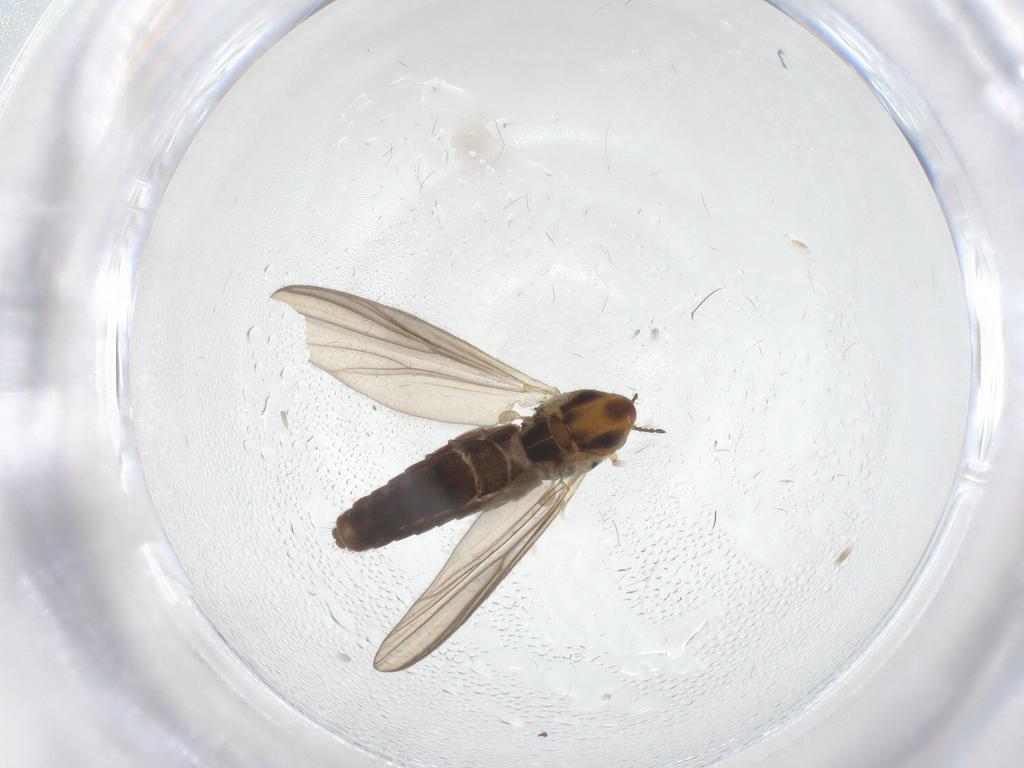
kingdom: Animalia
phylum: Arthropoda
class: Insecta
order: Diptera
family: Chironomidae
